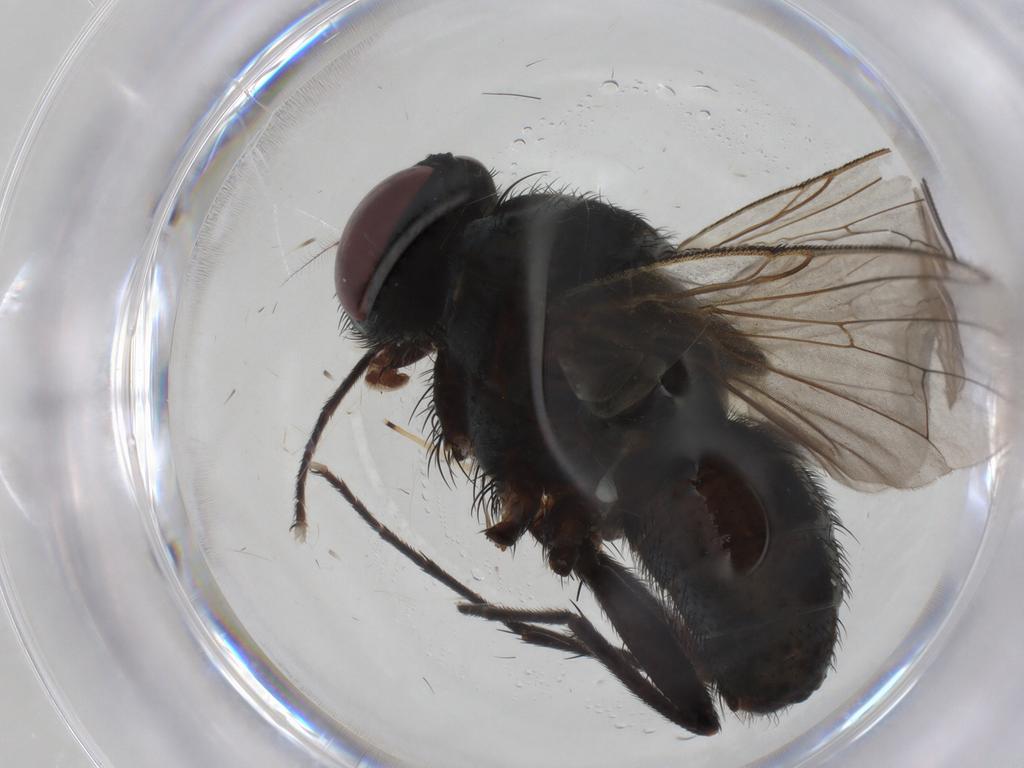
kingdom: Animalia
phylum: Arthropoda
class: Insecta
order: Diptera
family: Muscidae
